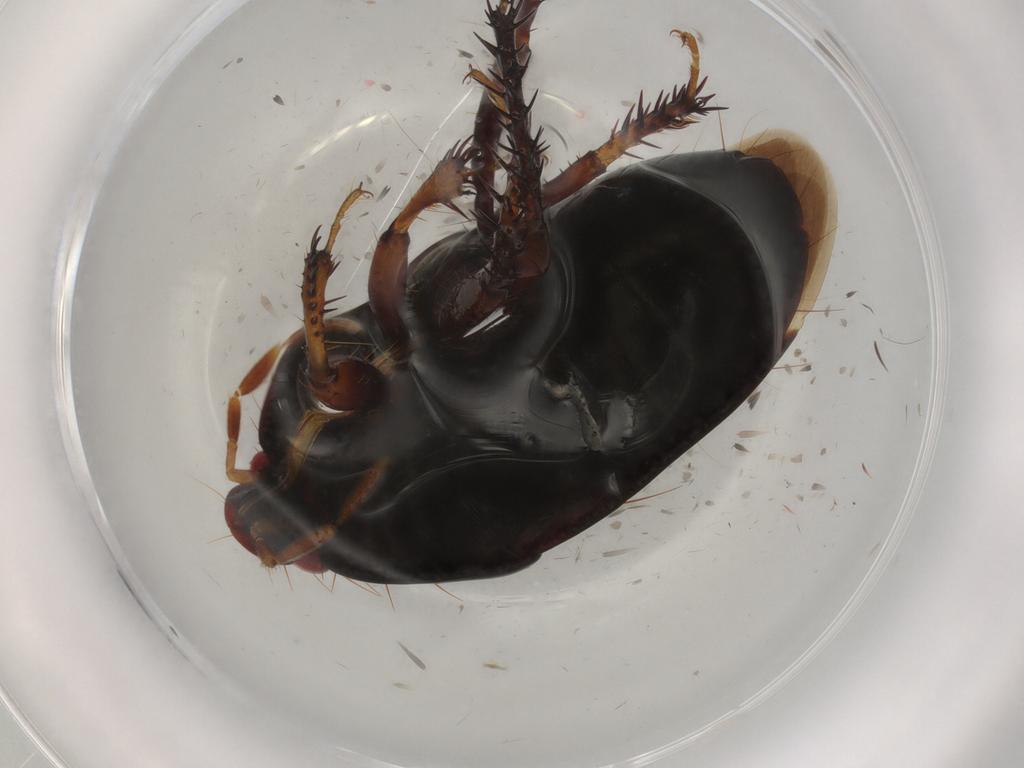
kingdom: Animalia
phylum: Arthropoda
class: Insecta
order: Hemiptera
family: Cydnidae
